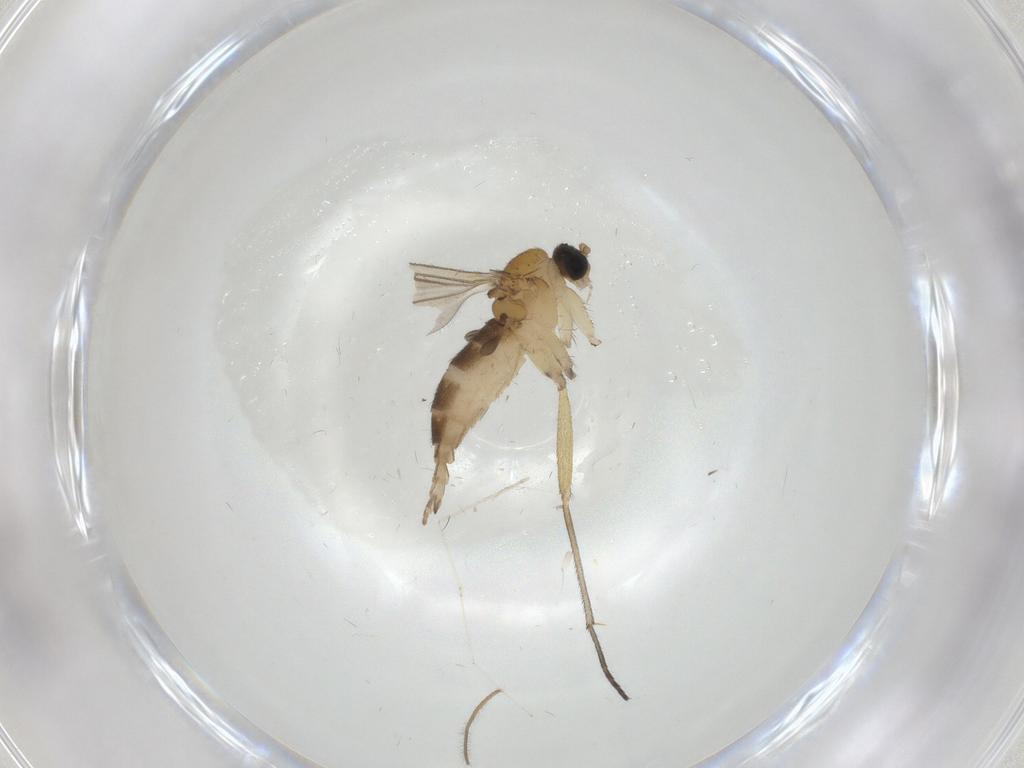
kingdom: Animalia
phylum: Arthropoda
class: Insecta
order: Diptera
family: Sciaridae
